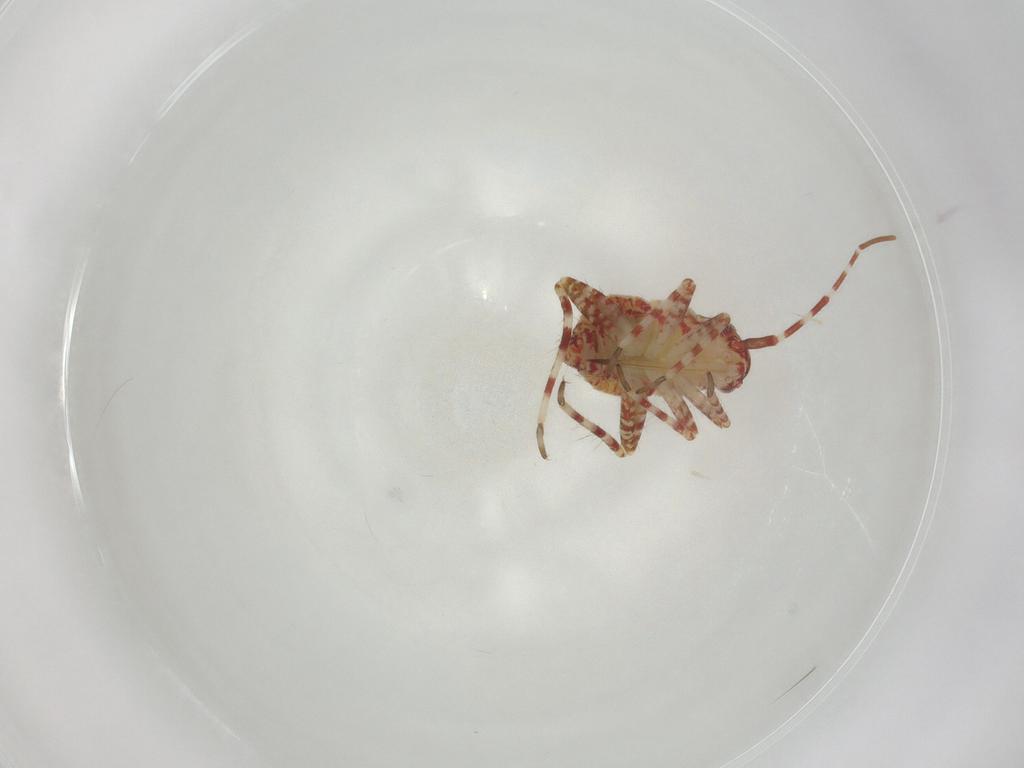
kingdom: Animalia
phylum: Arthropoda
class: Insecta
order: Hemiptera
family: Miridae
